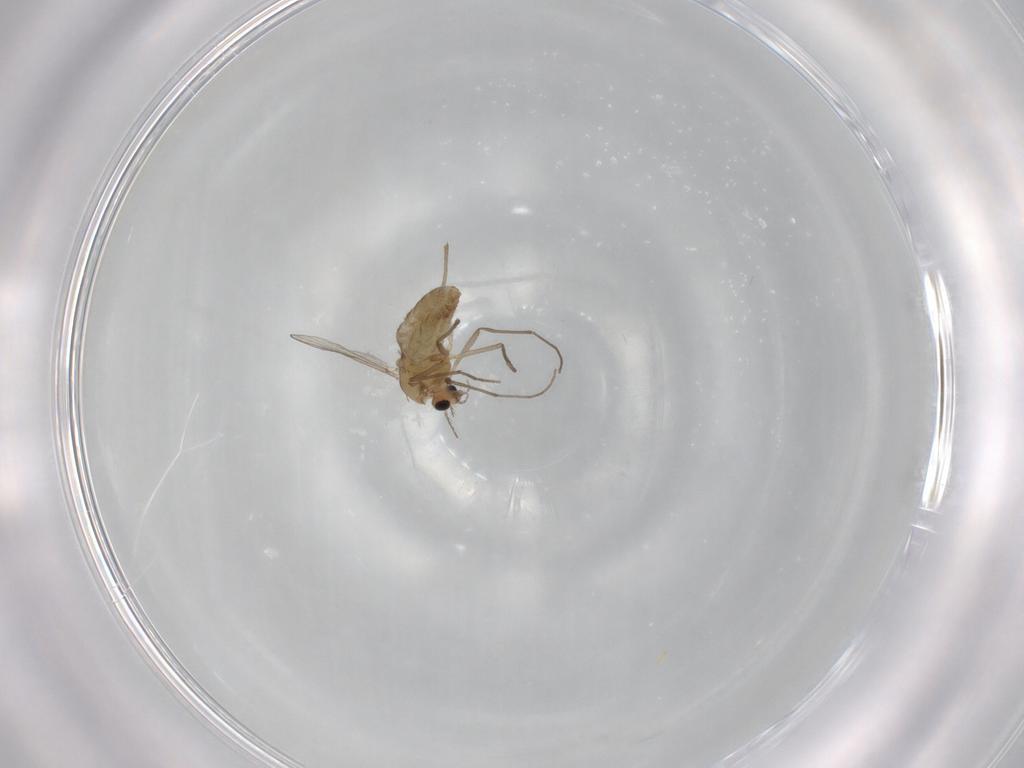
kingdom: Animalia
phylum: Arthropoda
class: Insecta
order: Diptera
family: Chironomidae
